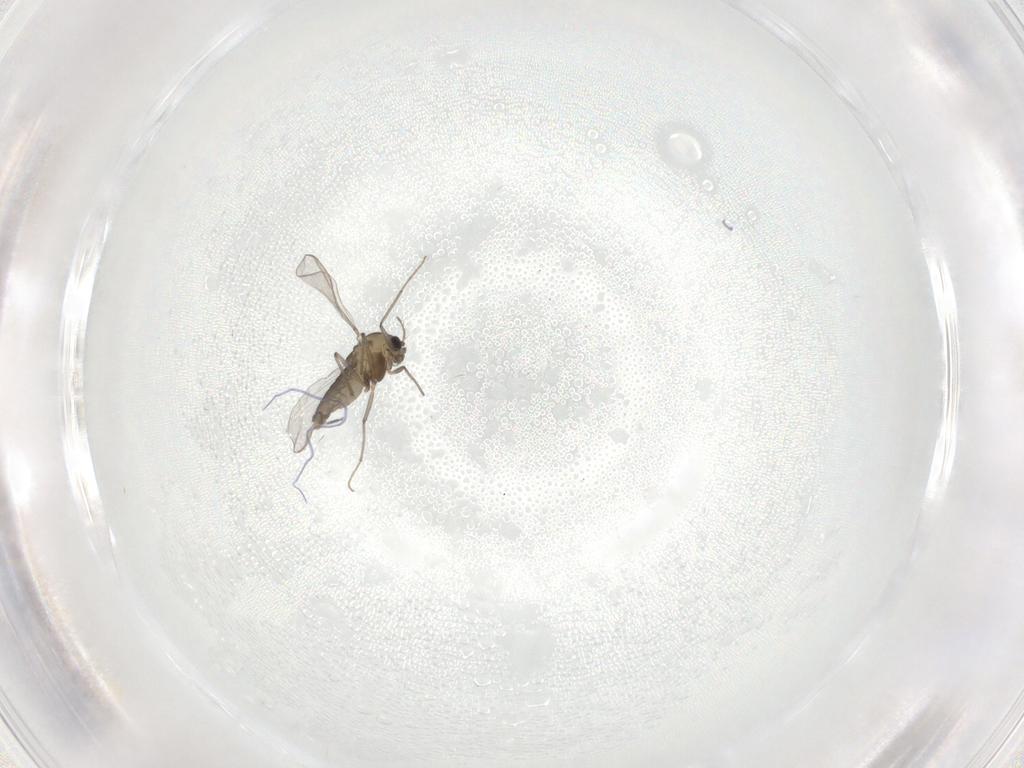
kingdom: Animalia
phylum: Arthropoda
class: Insecta
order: Diptera
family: Chironomidae
